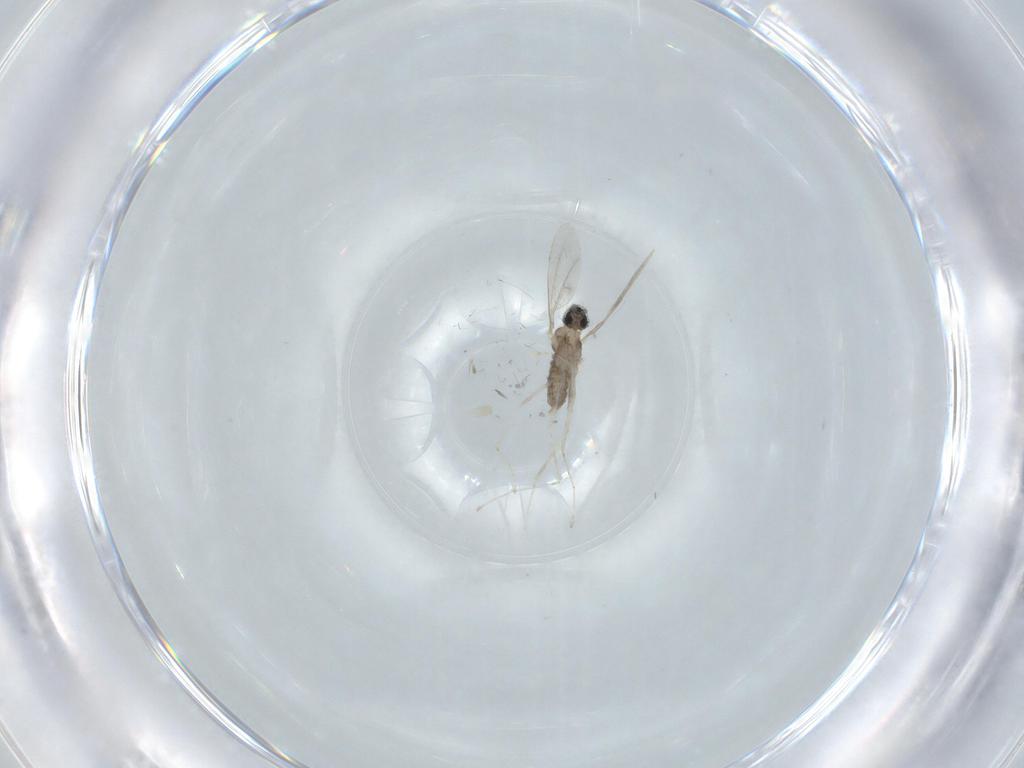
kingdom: Animalia
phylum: Arthropoda
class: Insecta
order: Diptera
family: Cecidomyiidae
